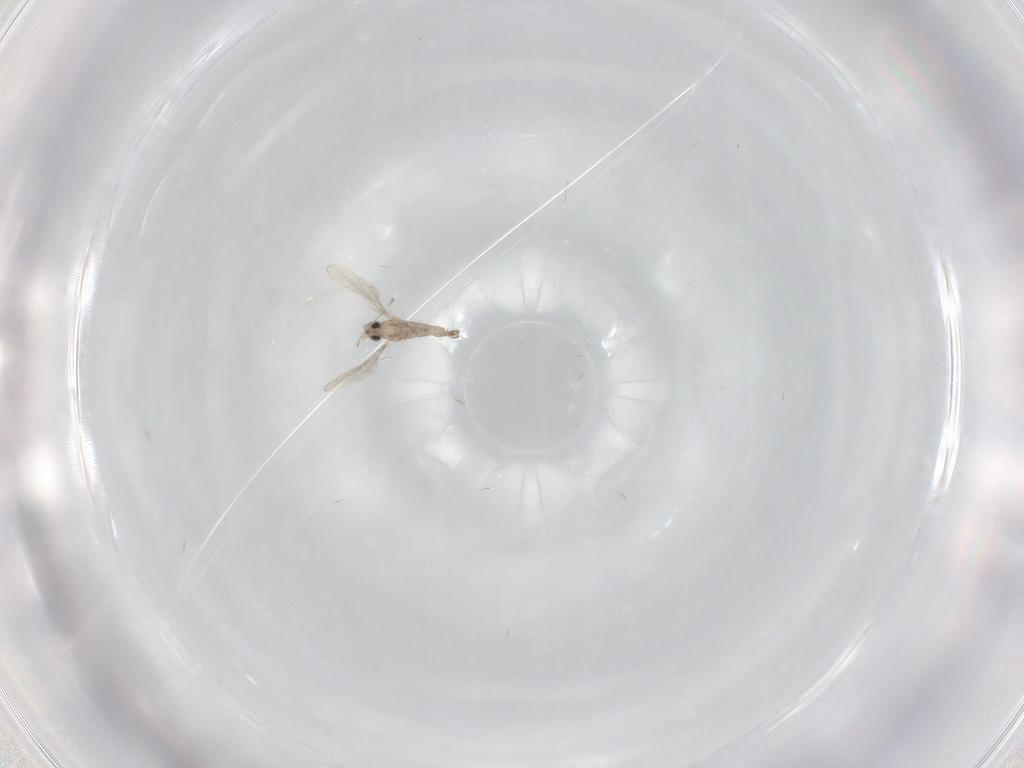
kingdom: Animalia
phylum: Arthropoda
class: Insecta
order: Diptera
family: Cecidomyiidae
